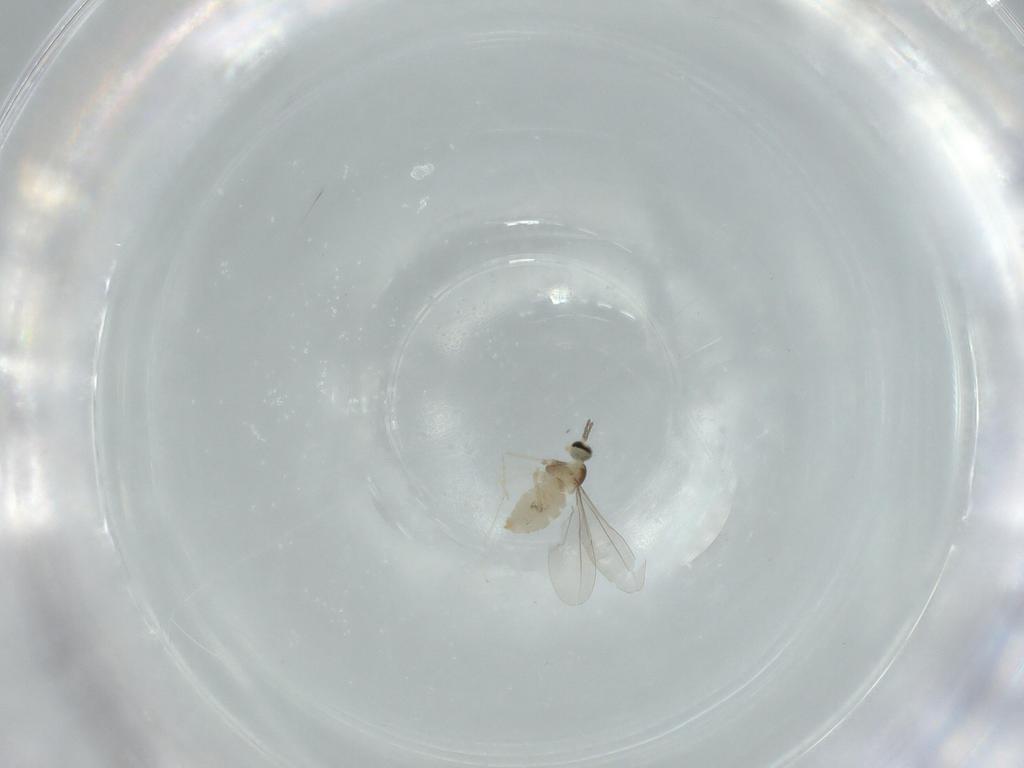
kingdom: Animalia
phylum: Arthropoda
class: Insecta
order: Diptera
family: Cecidomyiidae
